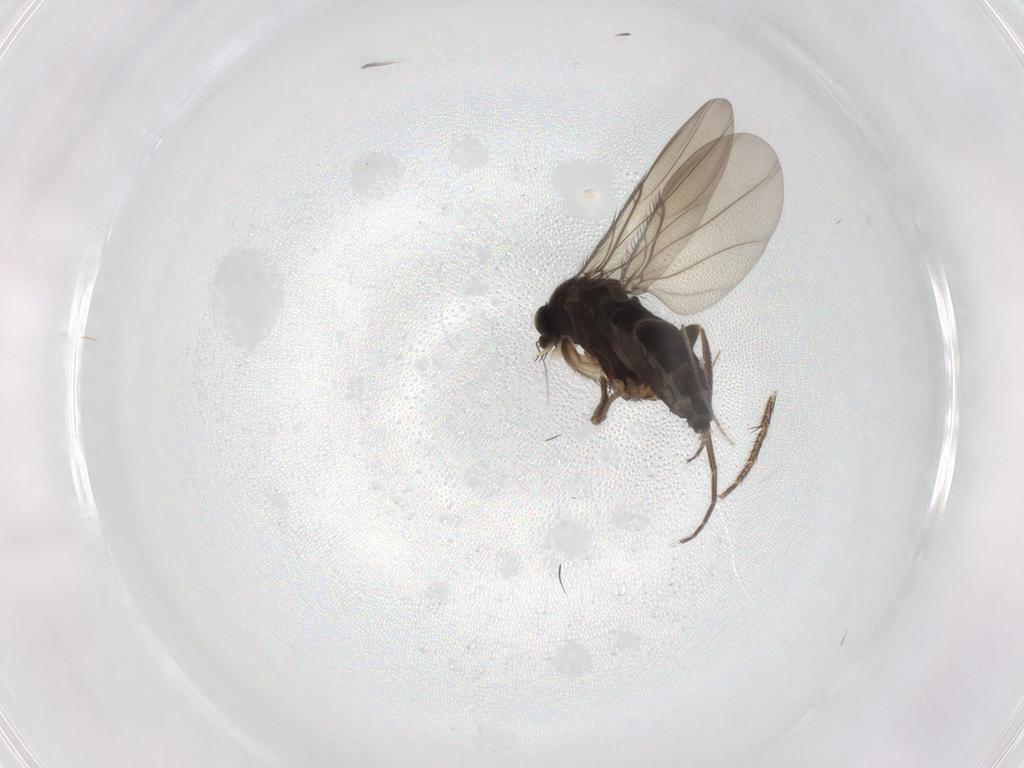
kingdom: Animalia
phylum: Arthropoda
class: Insecta
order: Diptera
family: Phoridae
